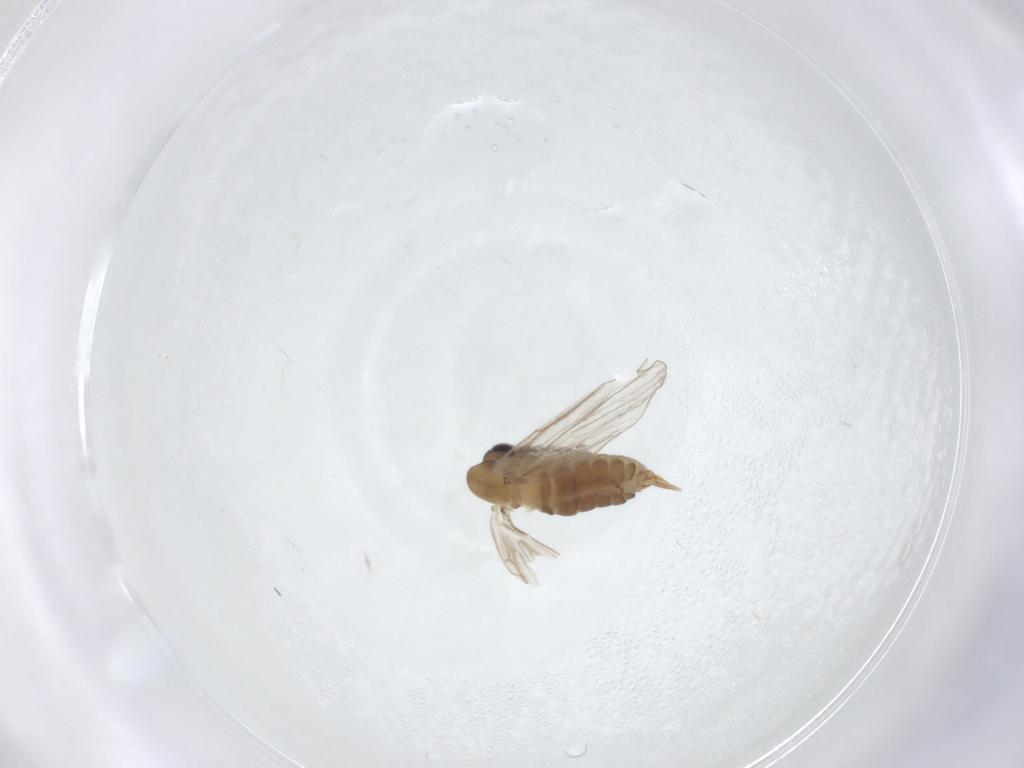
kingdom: Animalia
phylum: Arthropoda
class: Insecta
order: Diptera
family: Psychodidae
